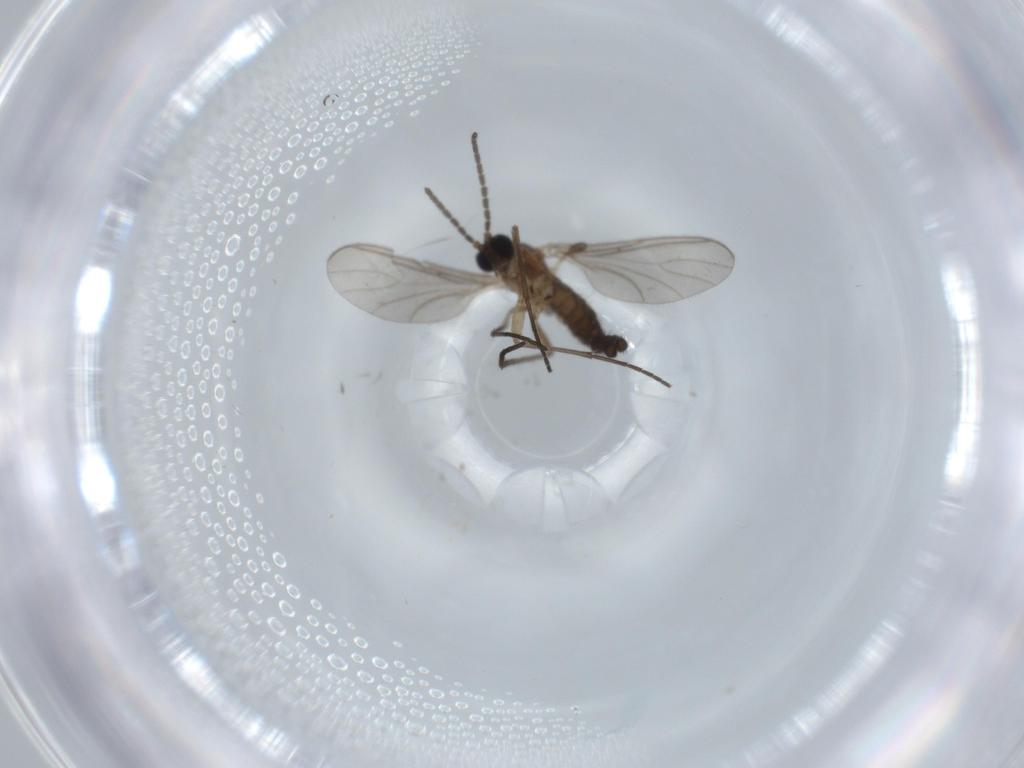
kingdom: Animalia
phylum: Arthropoda
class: Insecta
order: Diptera
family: Sciaridae
